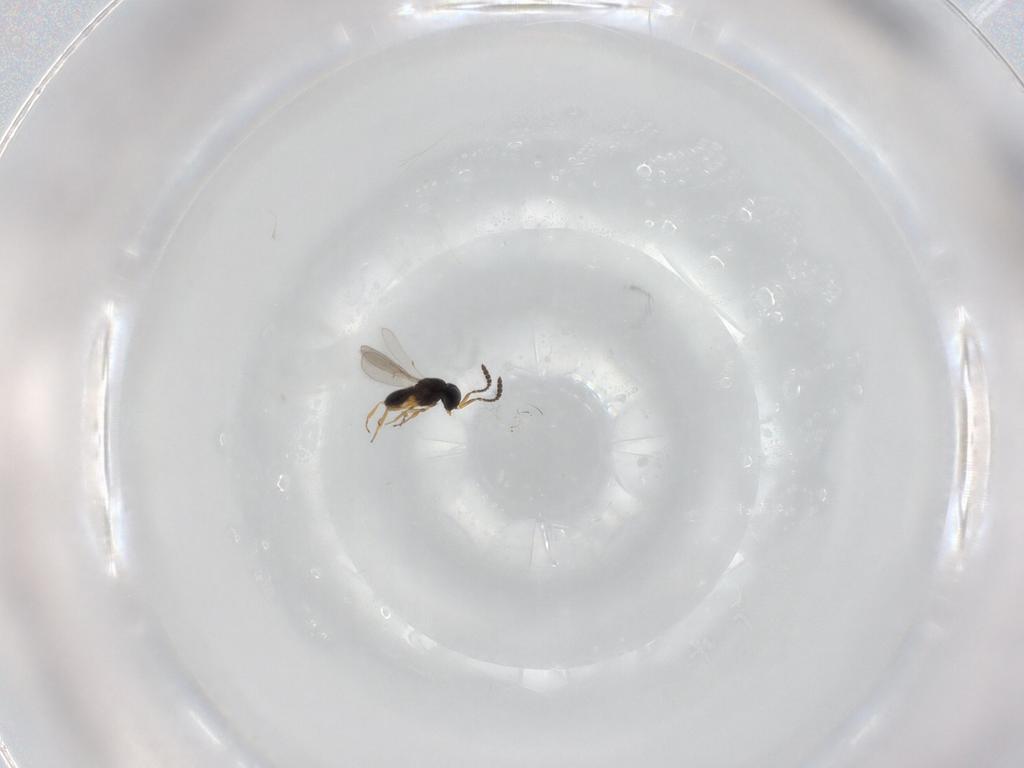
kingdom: Animalia
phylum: Arthropoda
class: Insecta
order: Hymenoptera
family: Scelionidae
